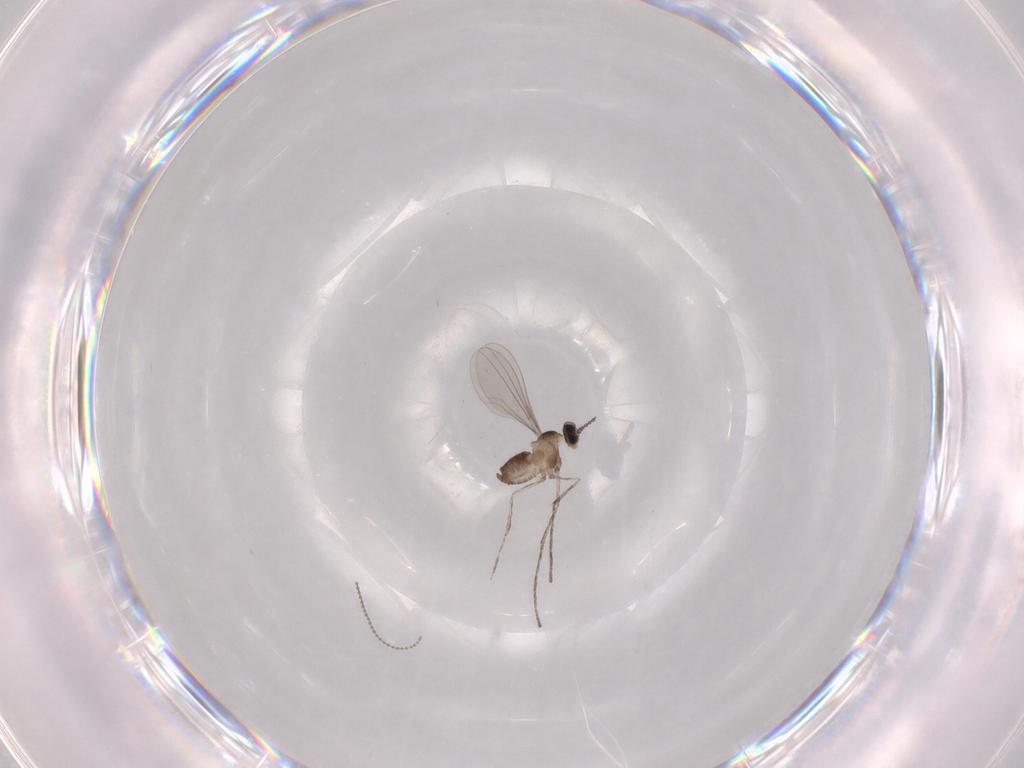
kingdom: Animalia
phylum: Arthropoda
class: Insecta
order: Diptera
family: Cecidomyiidae
